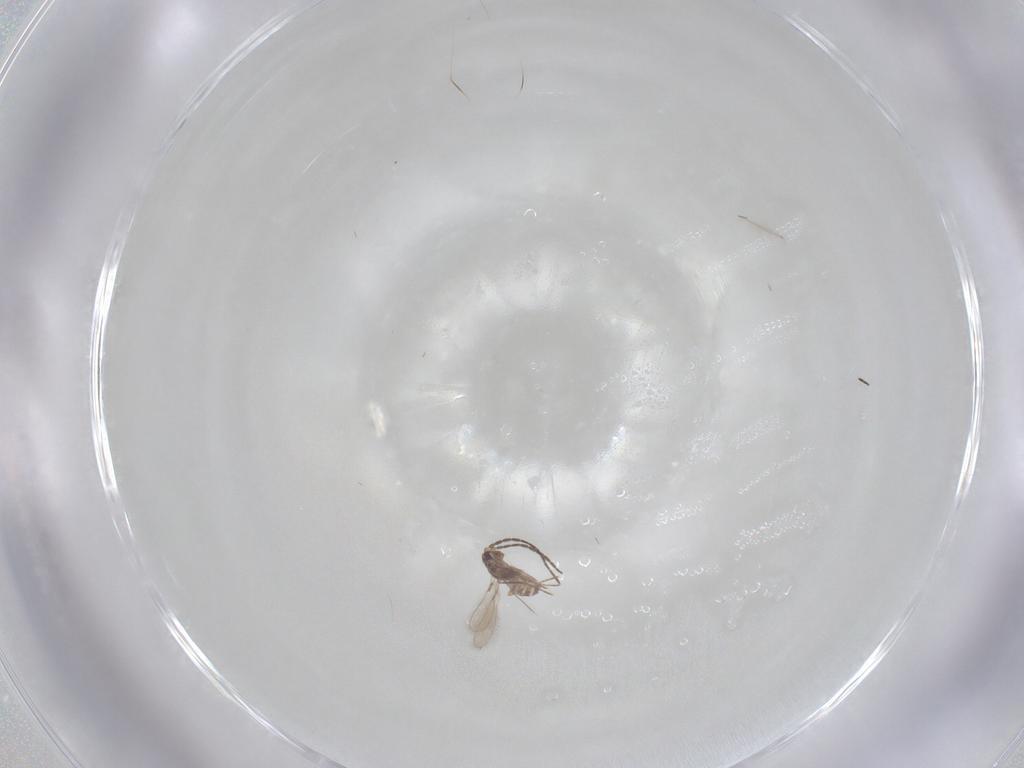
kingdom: Animalia
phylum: Arthropoda
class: Insecta
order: Hymenoptera
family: Mymaridae
